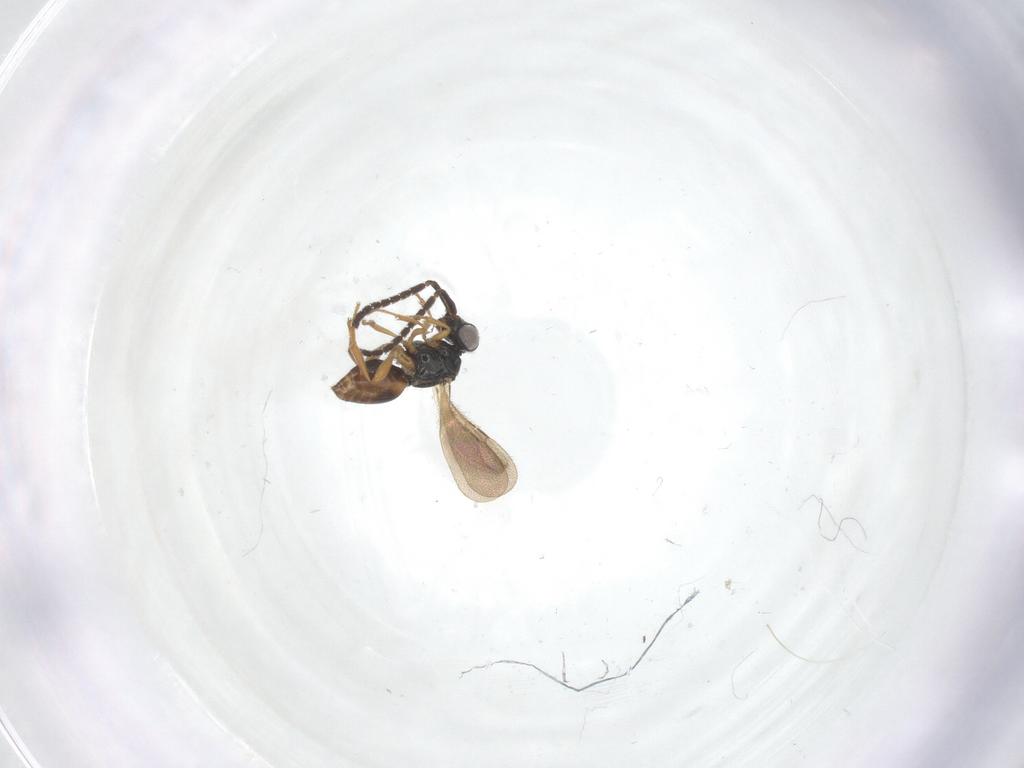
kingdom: Animalia
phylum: Arthropoda
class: Insecta
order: Hymenoptera
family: Ceraphronidae
